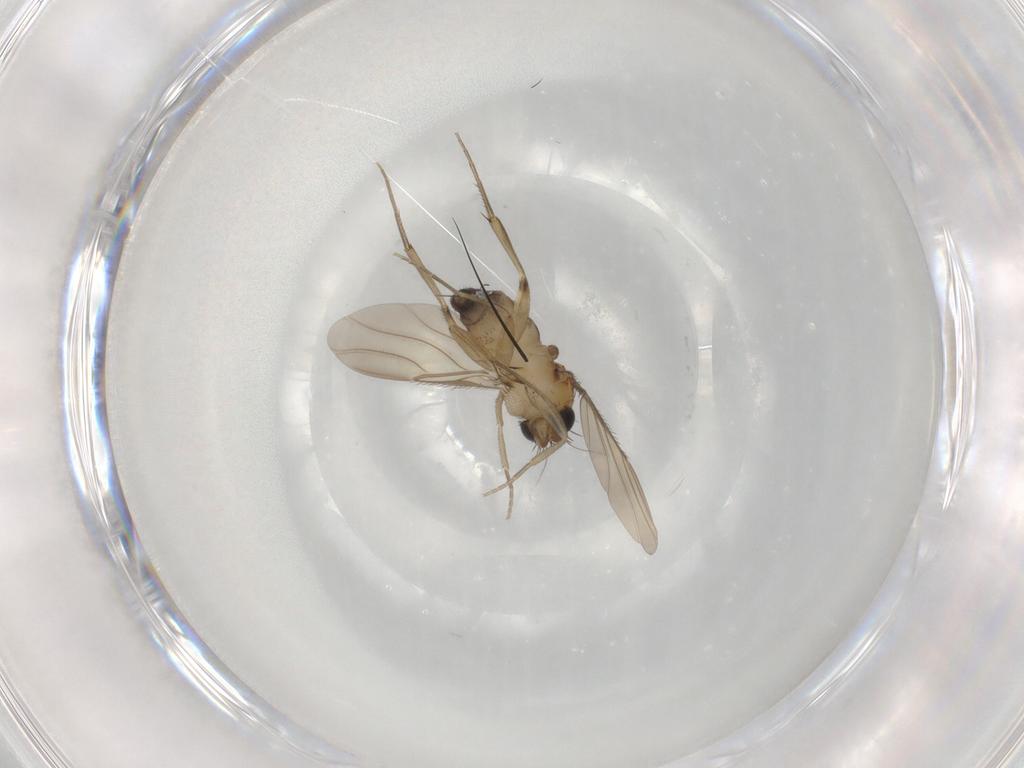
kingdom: Animalia
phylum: Arthropoda
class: Insecta
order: Diptera
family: Phoridae
